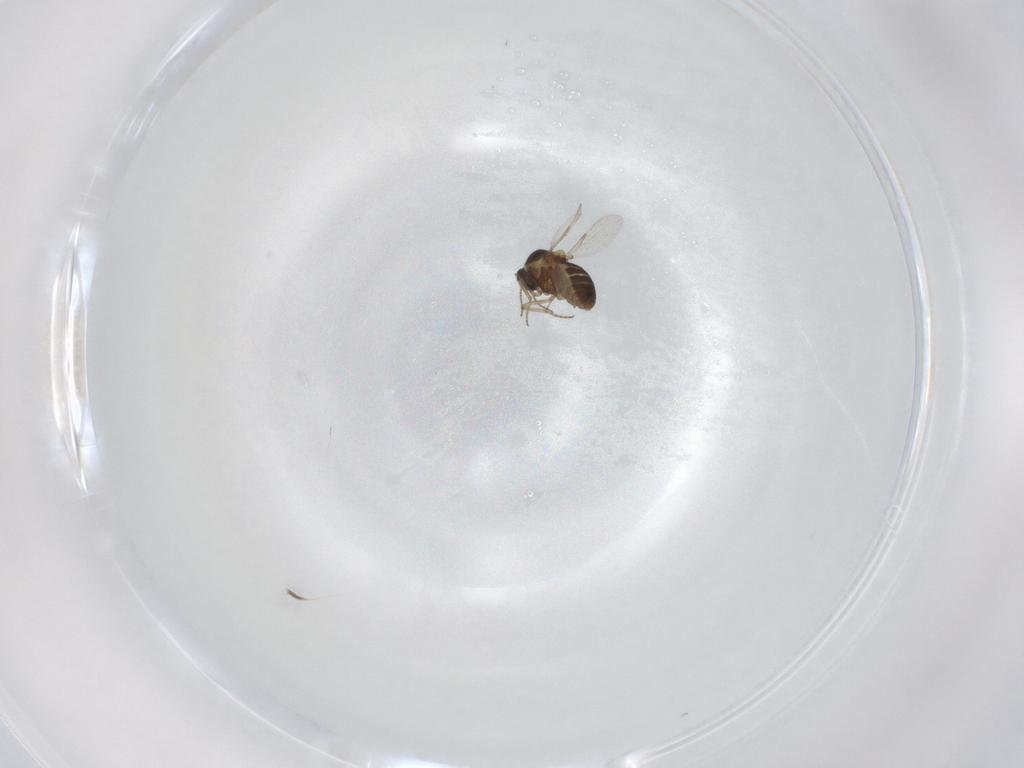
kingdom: Animalia
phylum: Arthropoda
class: Insecta
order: Diptera
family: Ceratopogonidae
